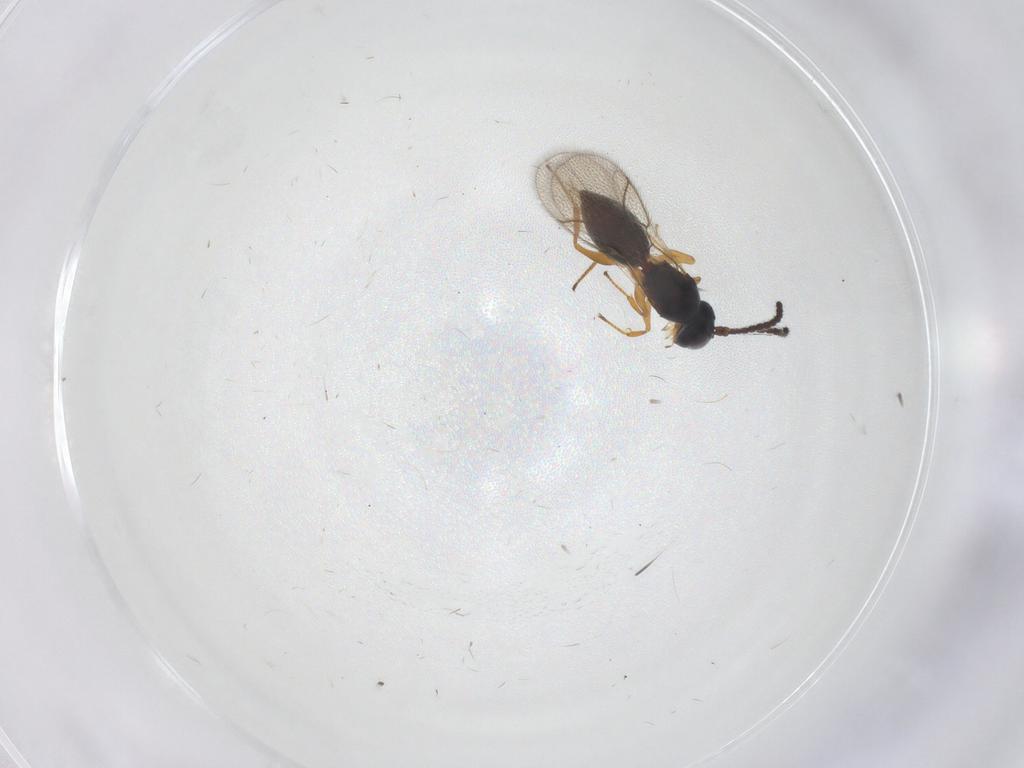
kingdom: Animalia
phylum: Arthropoda
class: Insecta
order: Hymenoptera
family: Figitidae
